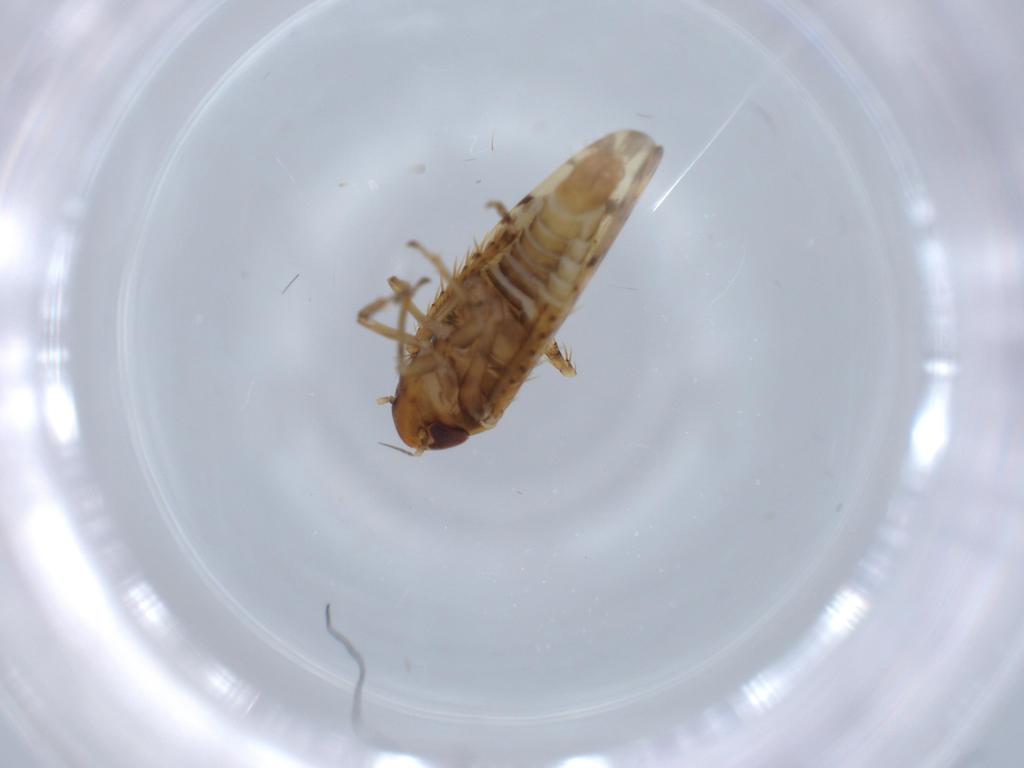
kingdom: Animalia
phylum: Arthropoda
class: Insecta
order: Hemiptera
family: Cicadellidae
